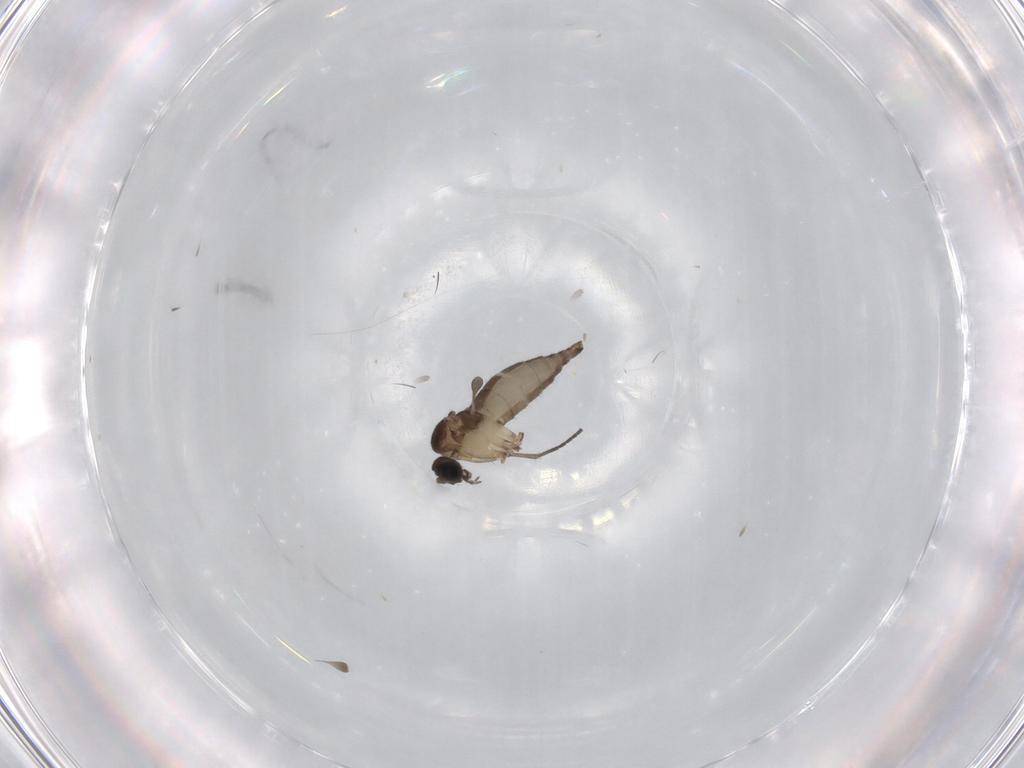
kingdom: Animalia
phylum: Arthropoda
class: Insecta
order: Diptera
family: Sciaridae
